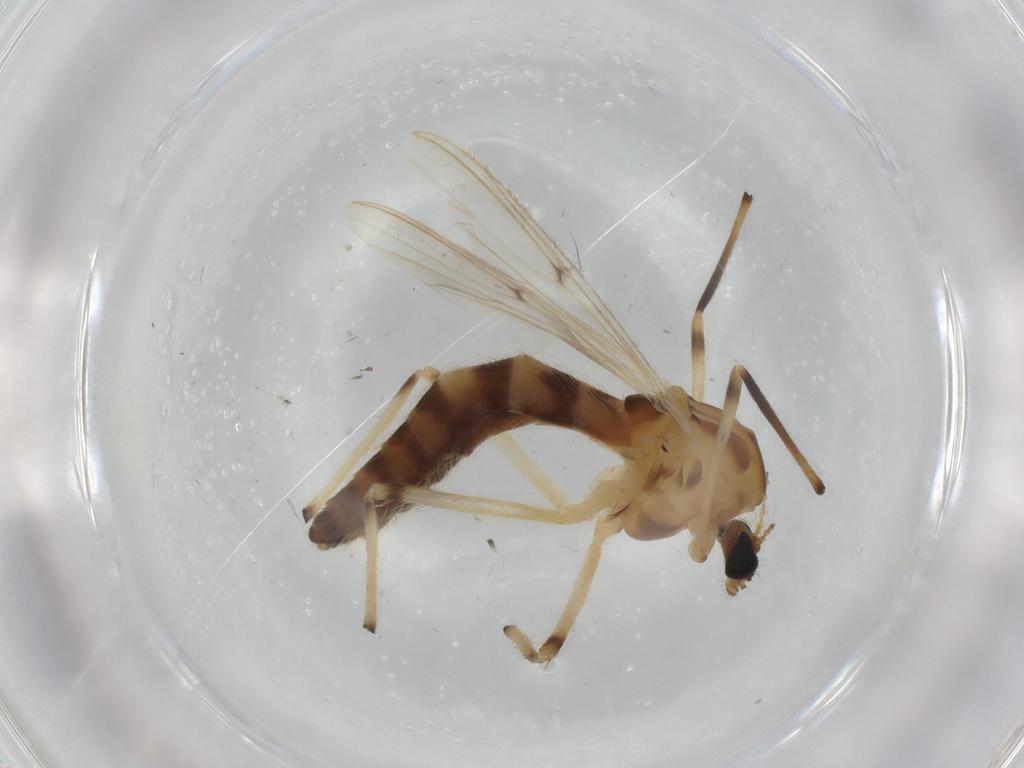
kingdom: Animalia
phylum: Arthropoda
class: Insecta
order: Diptera
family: Chironomidae
